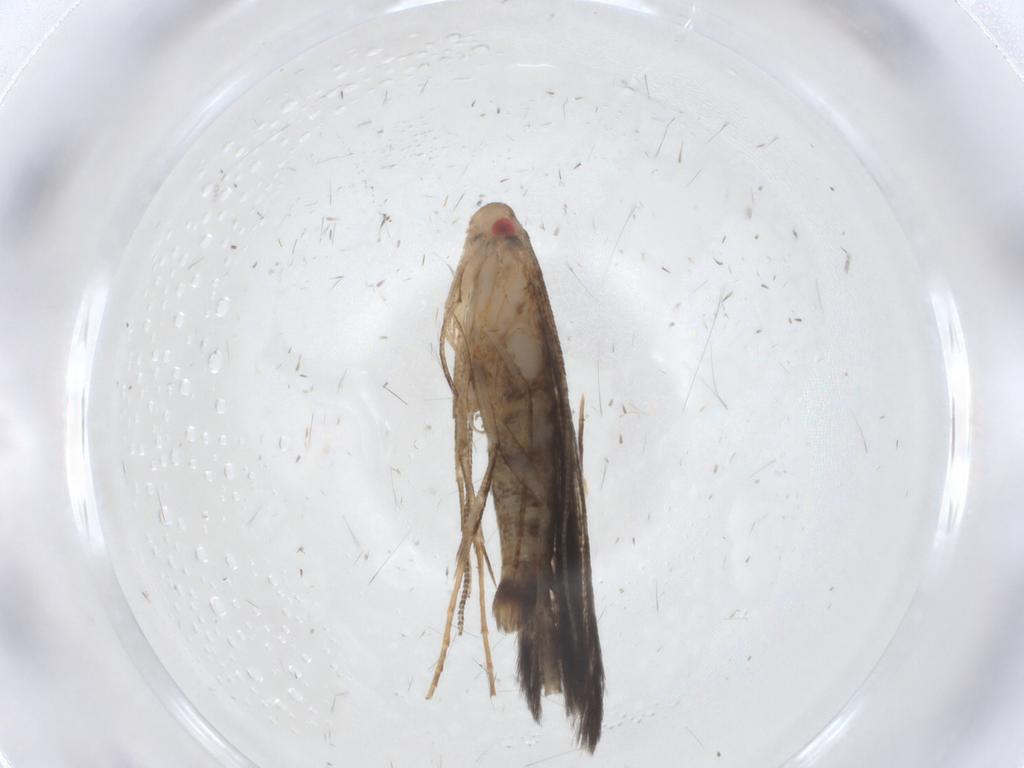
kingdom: Animalia
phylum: Arthropoda
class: Insecta
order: Lepidoptera
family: Cosmopterigidae
